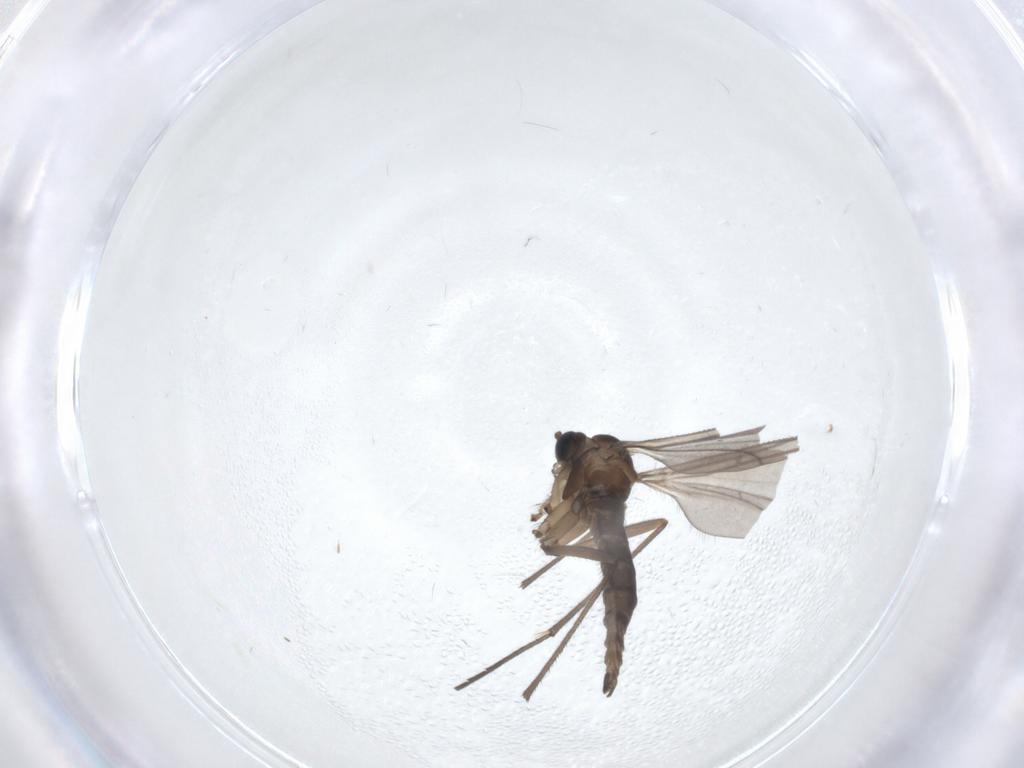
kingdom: Animalia
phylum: Arthropoda
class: Insecta
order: Diptera
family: Sciaridae
